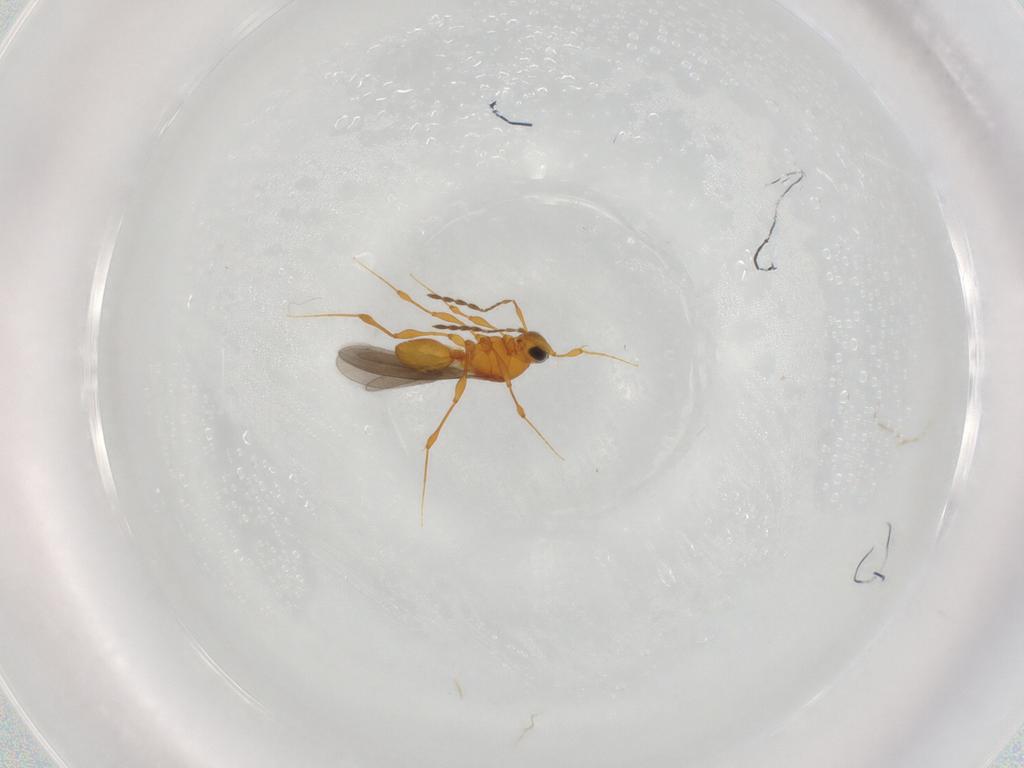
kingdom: Animalia
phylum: Arthropoda
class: Insecta
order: Hymenoptera
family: Platygastridae
